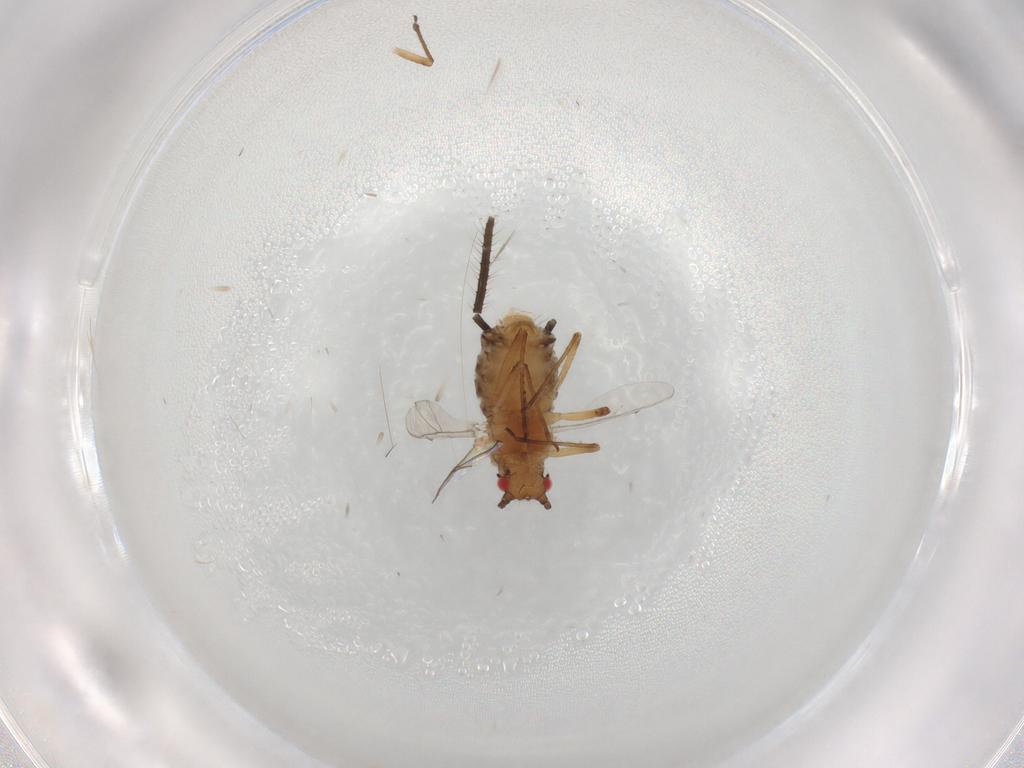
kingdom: Animalia
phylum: Arthropoda
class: Insecta
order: Hemiptera
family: Aphididae
